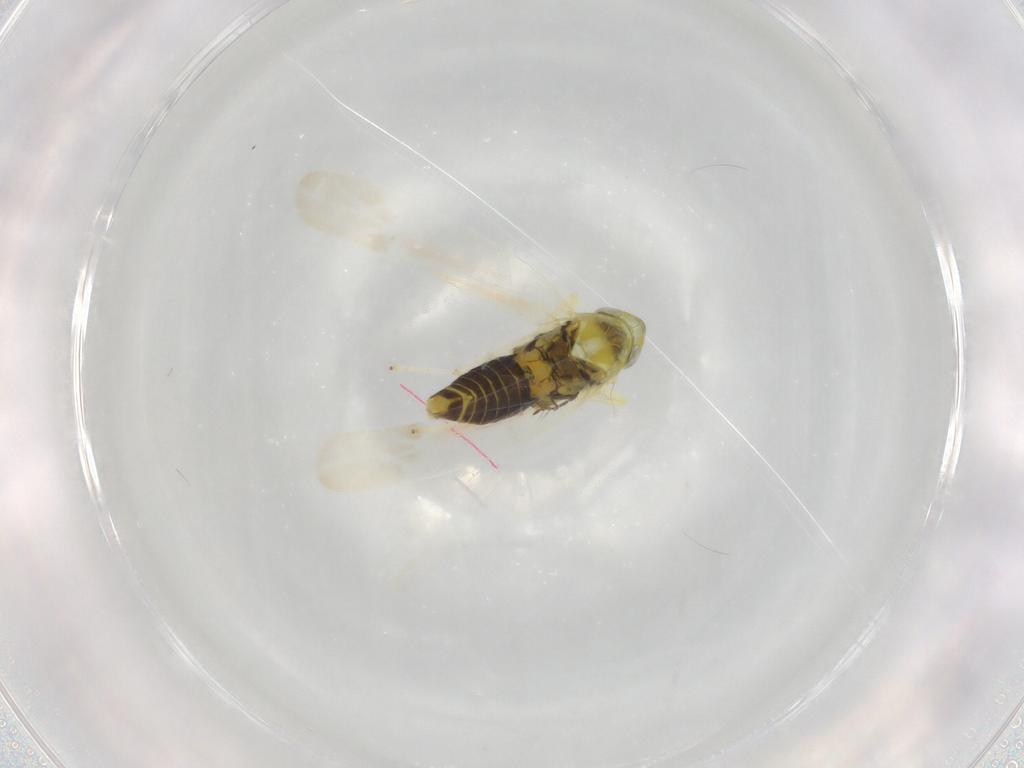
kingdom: Animalia
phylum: Arthropoda
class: Insecta
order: Hemiptera
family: Cicadellidae
